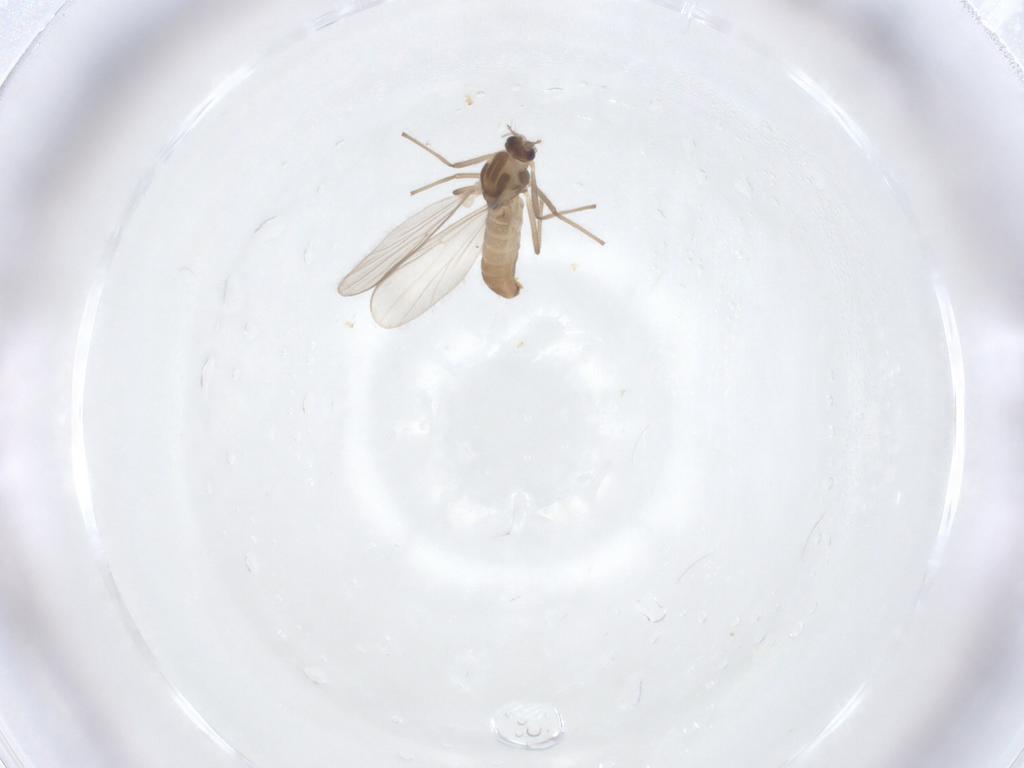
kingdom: Animalia
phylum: Arthropoda
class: Insecta
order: Diptera
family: Chironomidae
